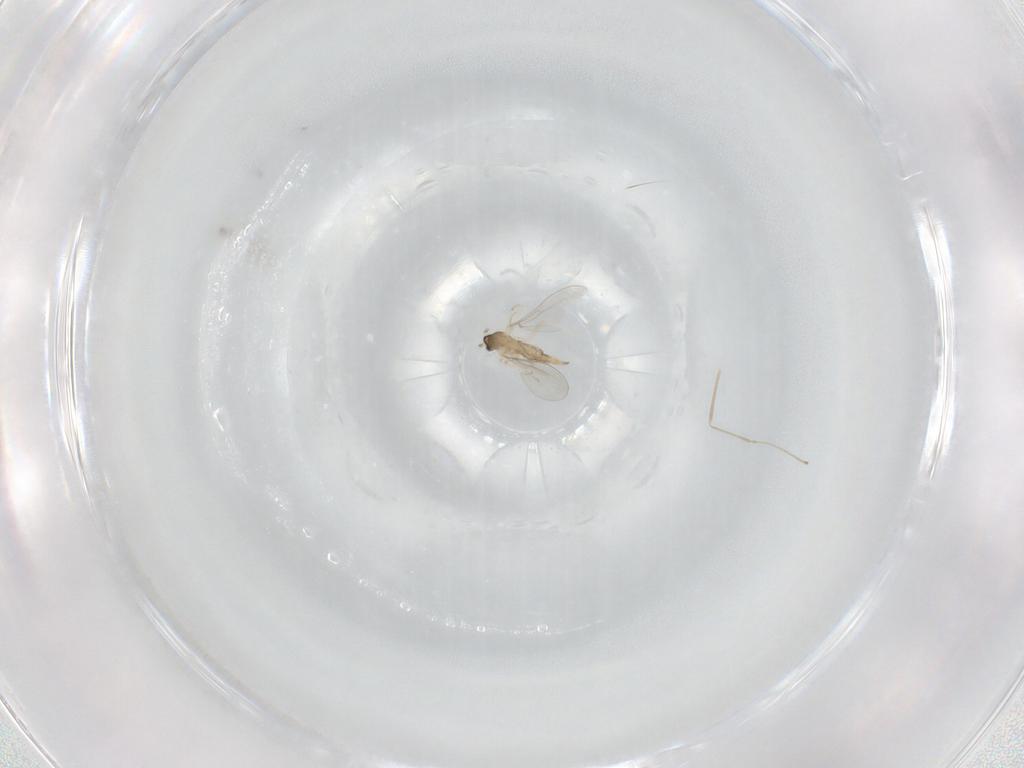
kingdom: Animalia
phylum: Arthropoda
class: Insecta
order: Diptera
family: Cecidomyiidae
